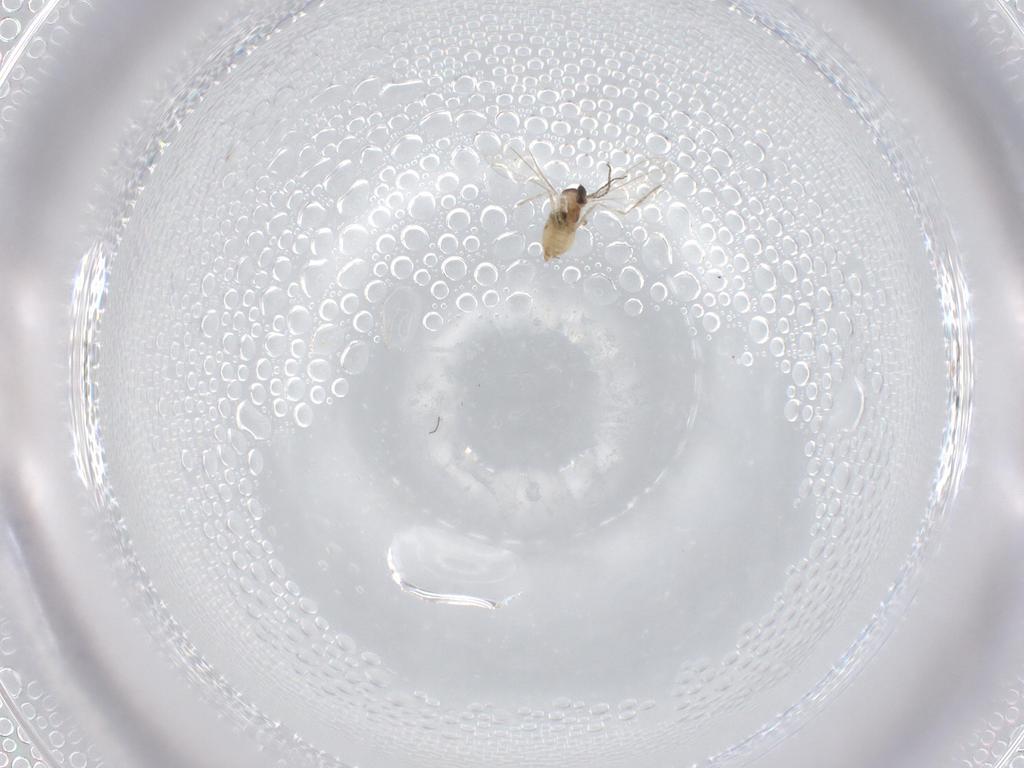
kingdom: Animalia
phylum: Arthropoda
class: Insecta
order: Diptera
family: Cecidomyiidae
